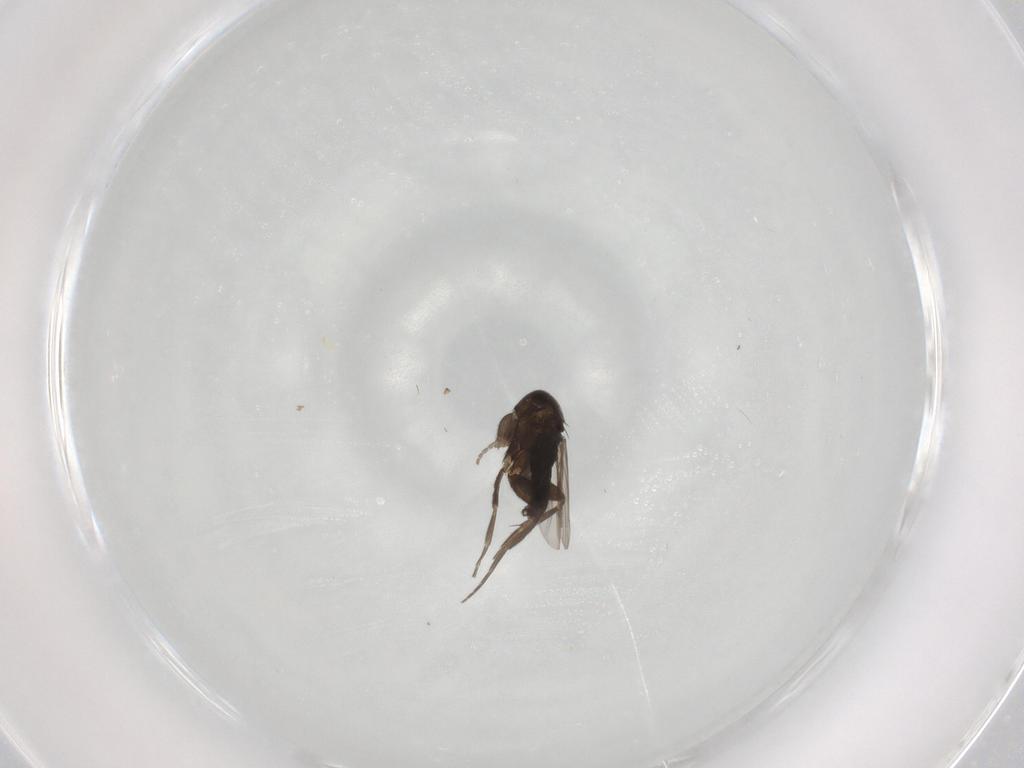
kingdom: Animalia
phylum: Arthropoda
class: Insecta
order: Diptera
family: Phoridae
